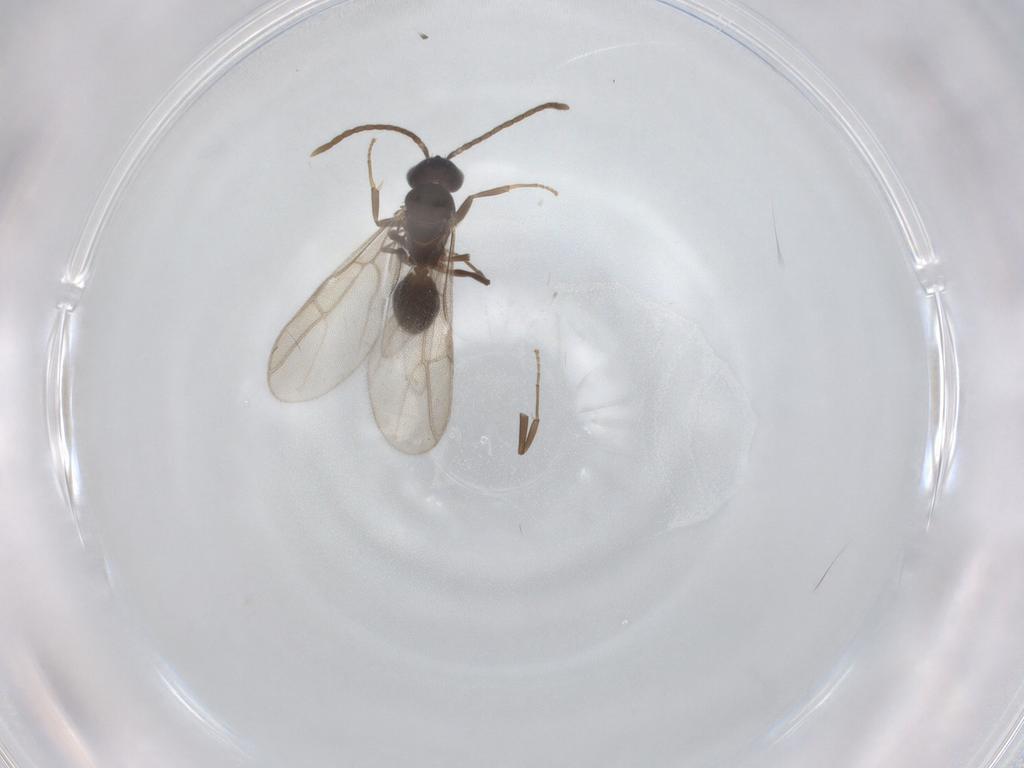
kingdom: Animalia
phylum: Arthropoda
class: Insecta
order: Hymenoptera
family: Formicidae
